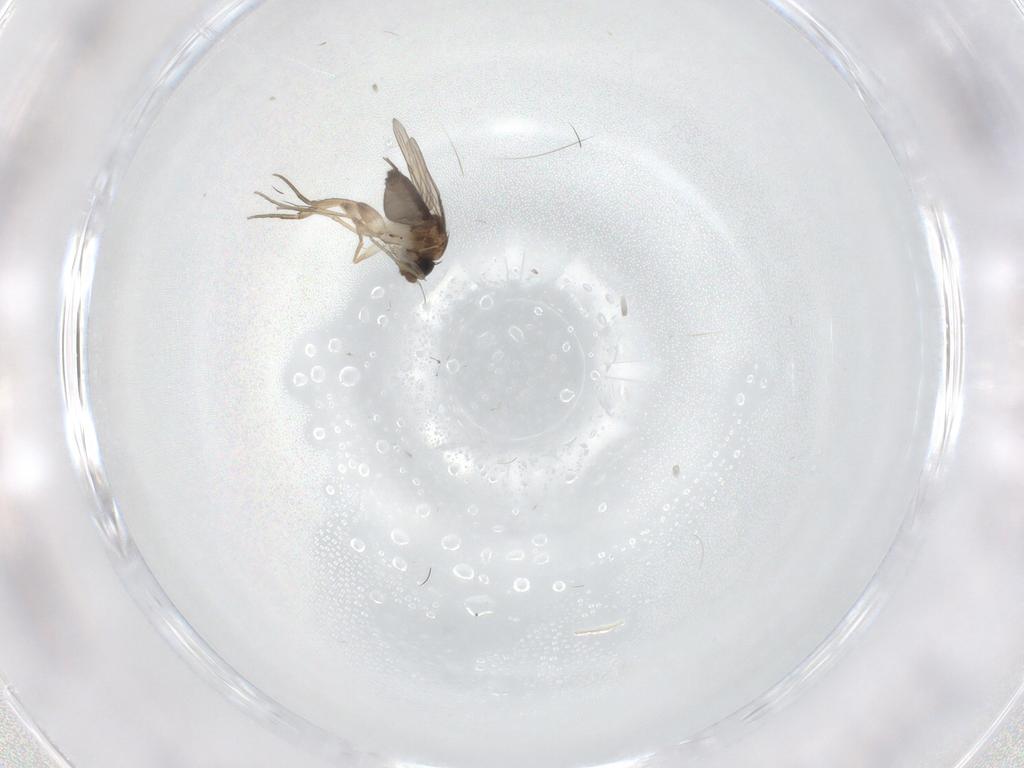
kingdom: Animalia
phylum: Arthropoda
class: Insecta
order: Diptera
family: Phoridae
